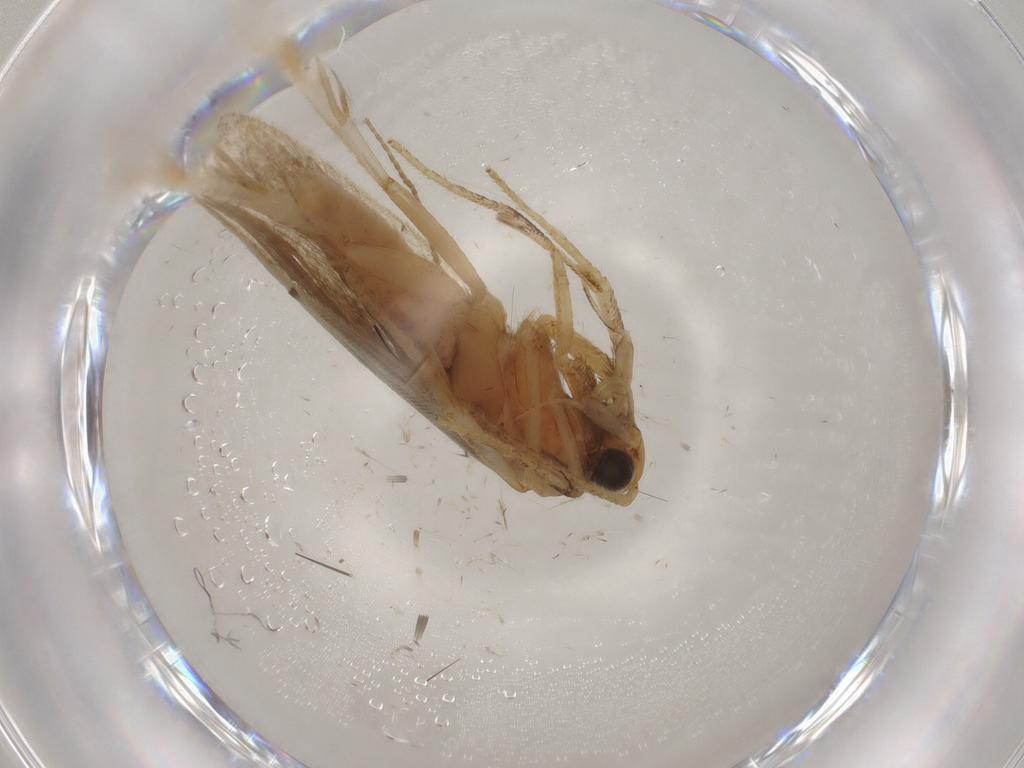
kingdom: Animalia
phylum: Arthropoda
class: Insecta
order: Lepidoptera
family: Gelechiidae
